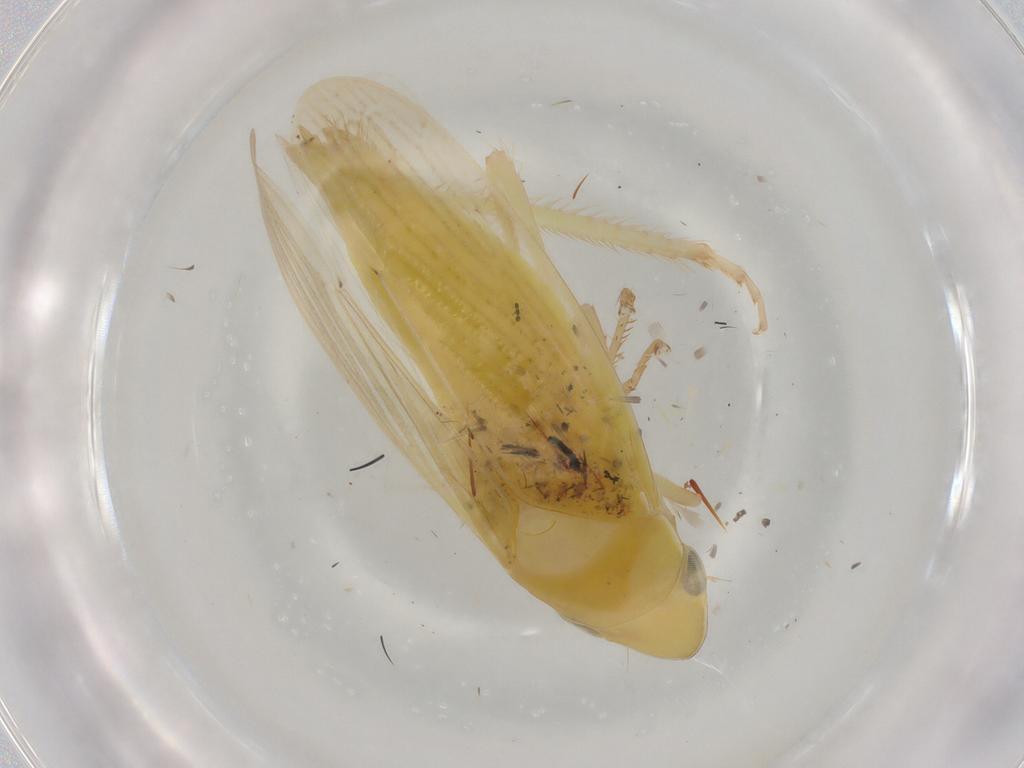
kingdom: Animalia
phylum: Arthropoda
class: Insecta
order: Hemiptera
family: Cicadellidae
